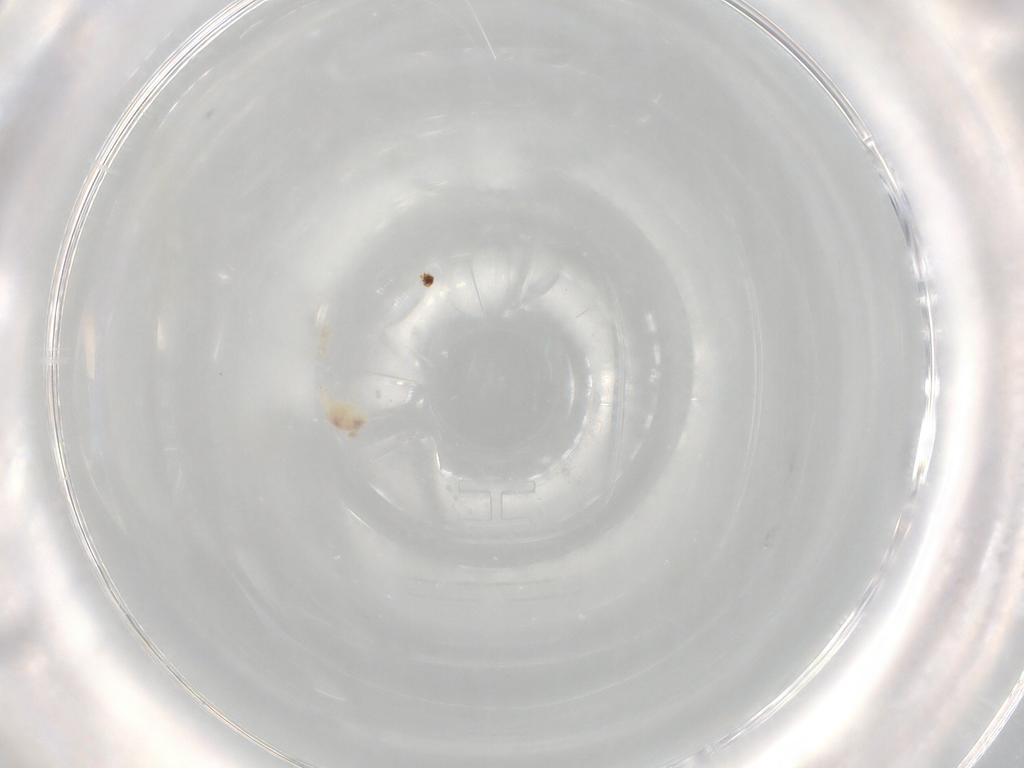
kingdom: Animalia
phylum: Arthropoda
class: Arachnida
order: Trombidiformes
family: Stigmaeidae
